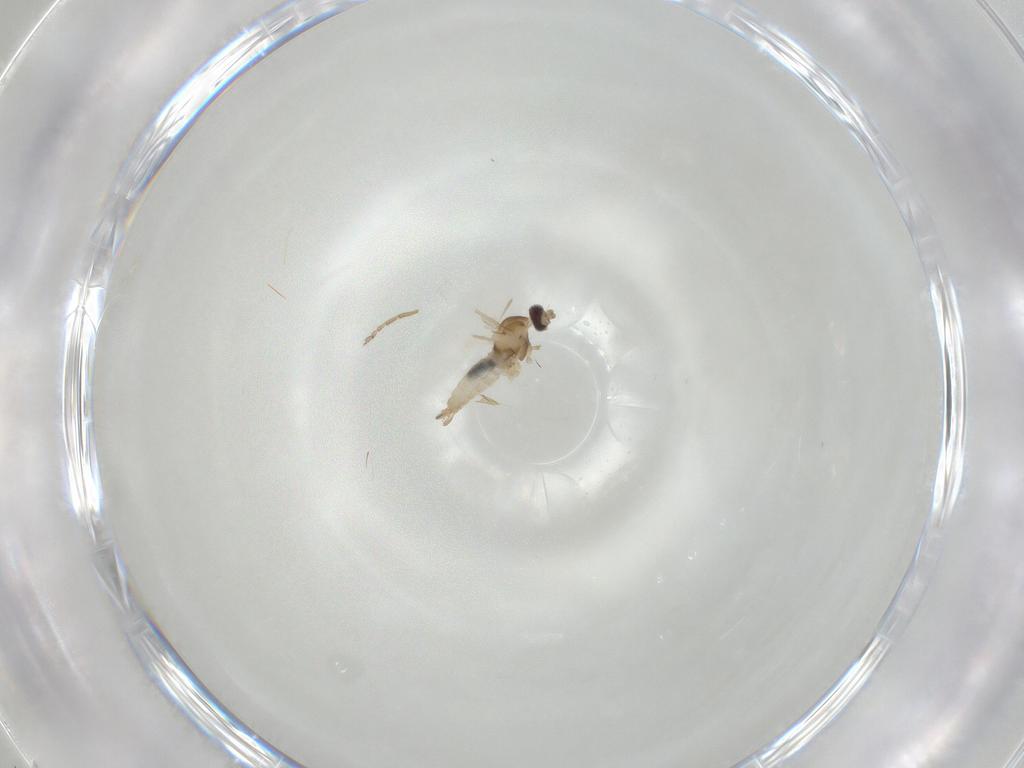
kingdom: Animalia
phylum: Arthropoda
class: Insecta
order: Diptera
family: Cecidomyiidae
